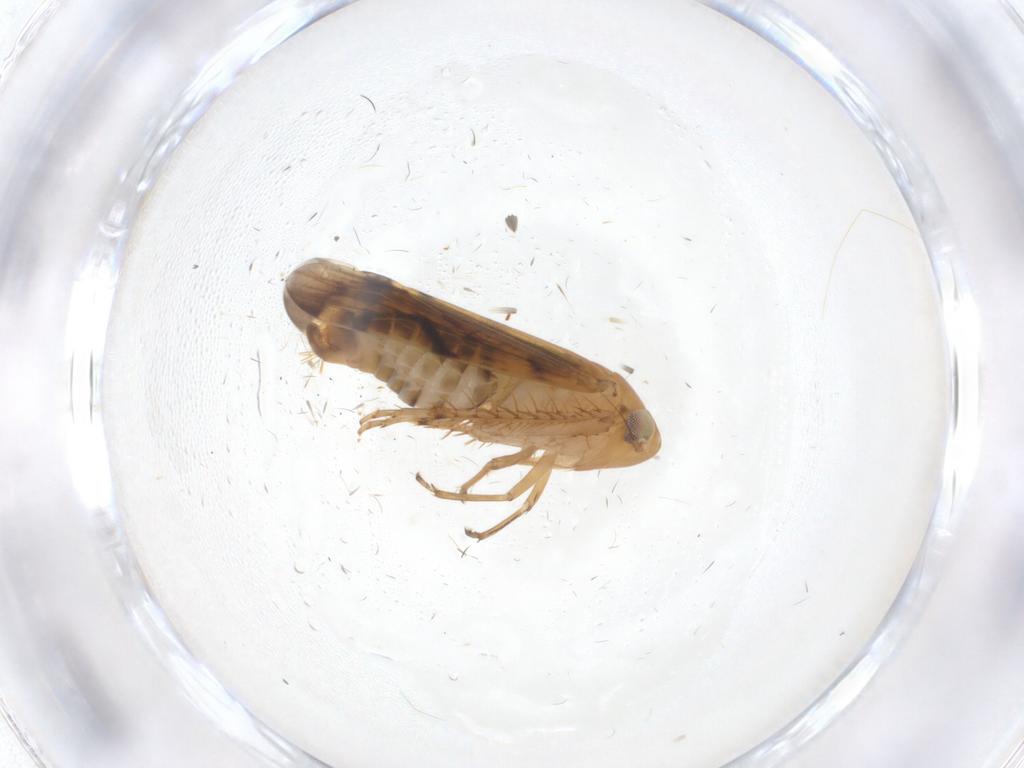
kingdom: Animalia
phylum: Arthropoda
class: Insecta
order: Hemiptera
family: Cicadellidae
